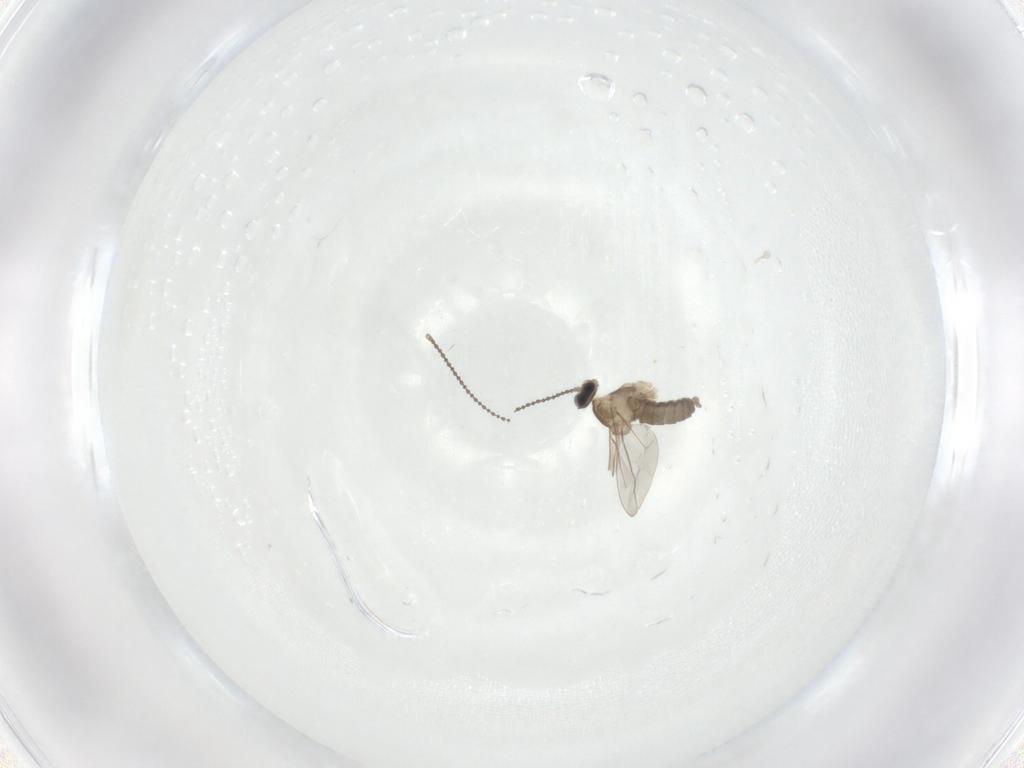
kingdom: Animalia
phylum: Arthropoda
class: Insecta
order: Diptera
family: Cecidomyiidae
